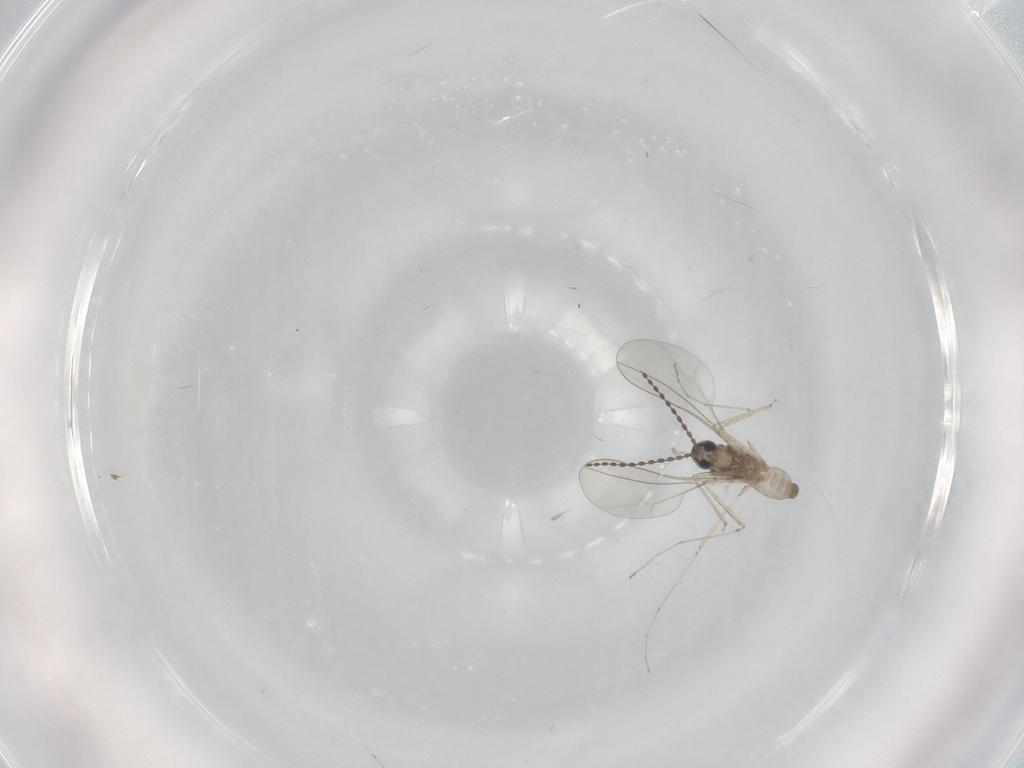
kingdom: Animalia
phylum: Arthropoda
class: Insecta
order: Diptera
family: Cecidomyiidae
